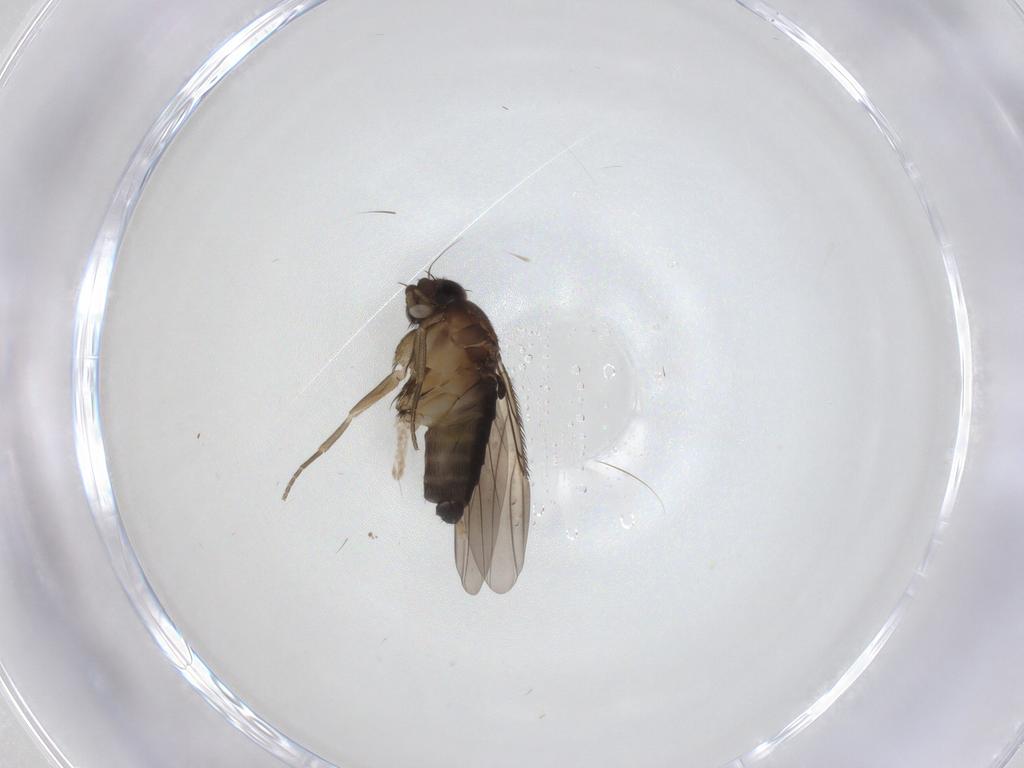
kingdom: Animalia
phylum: Arthropoda
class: Insecta
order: Diptera
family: Phoridae
